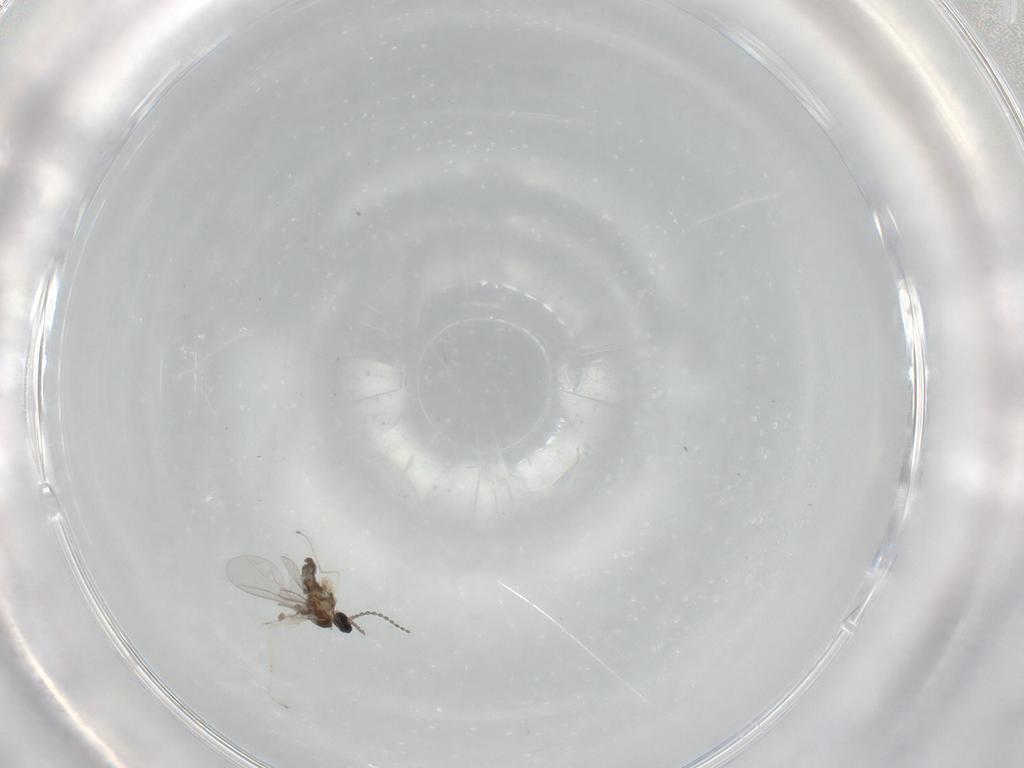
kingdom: Animalia
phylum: Arthropoda
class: Insecta
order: Diptera
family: Cecidomyiidae
